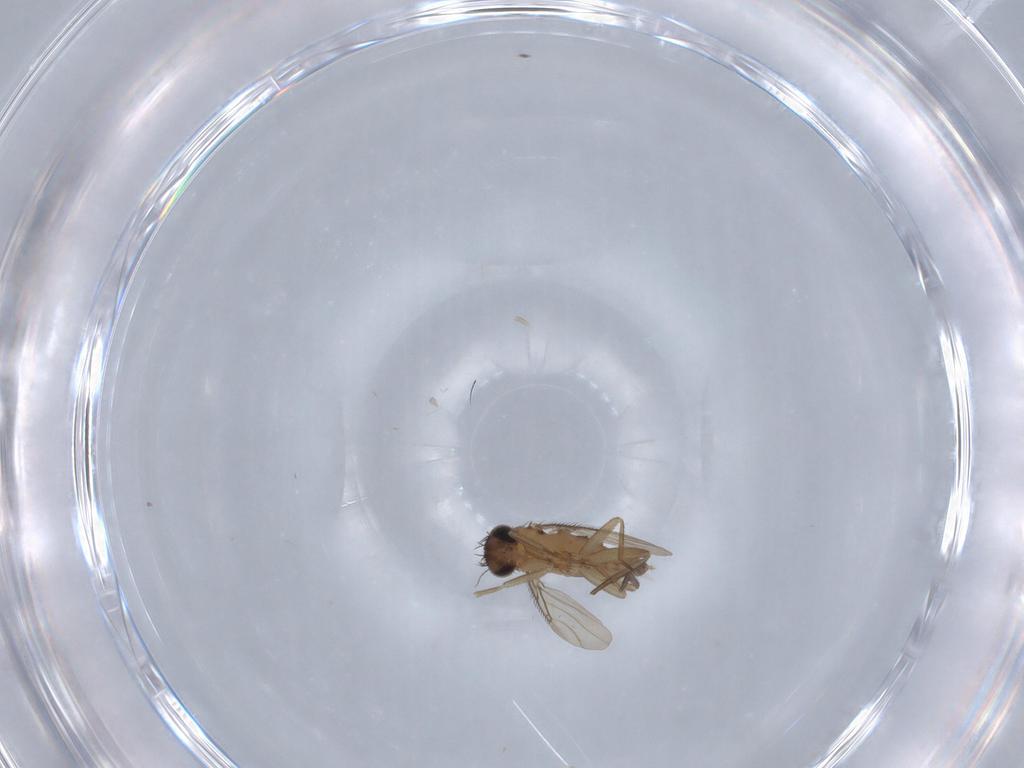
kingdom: Animalia
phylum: Arthropoda
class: Insecta
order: Diptera
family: Phoridae
